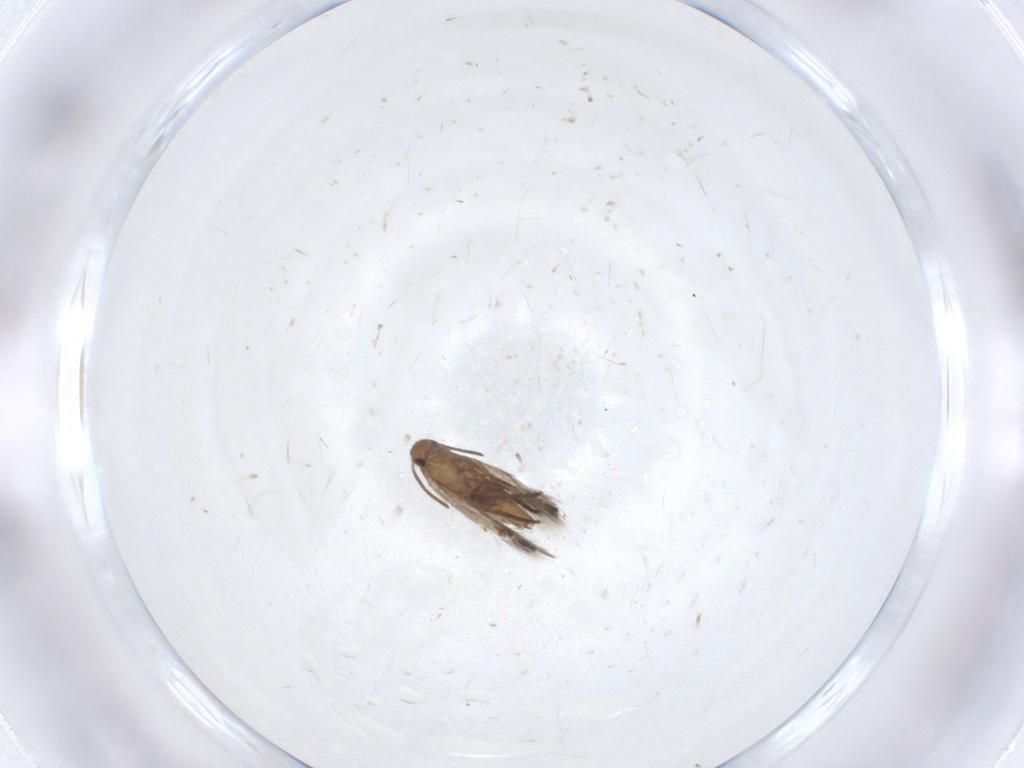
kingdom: Animalia
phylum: Arthropoda
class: Insecta
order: Lepidoptera
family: Heliozelidae
